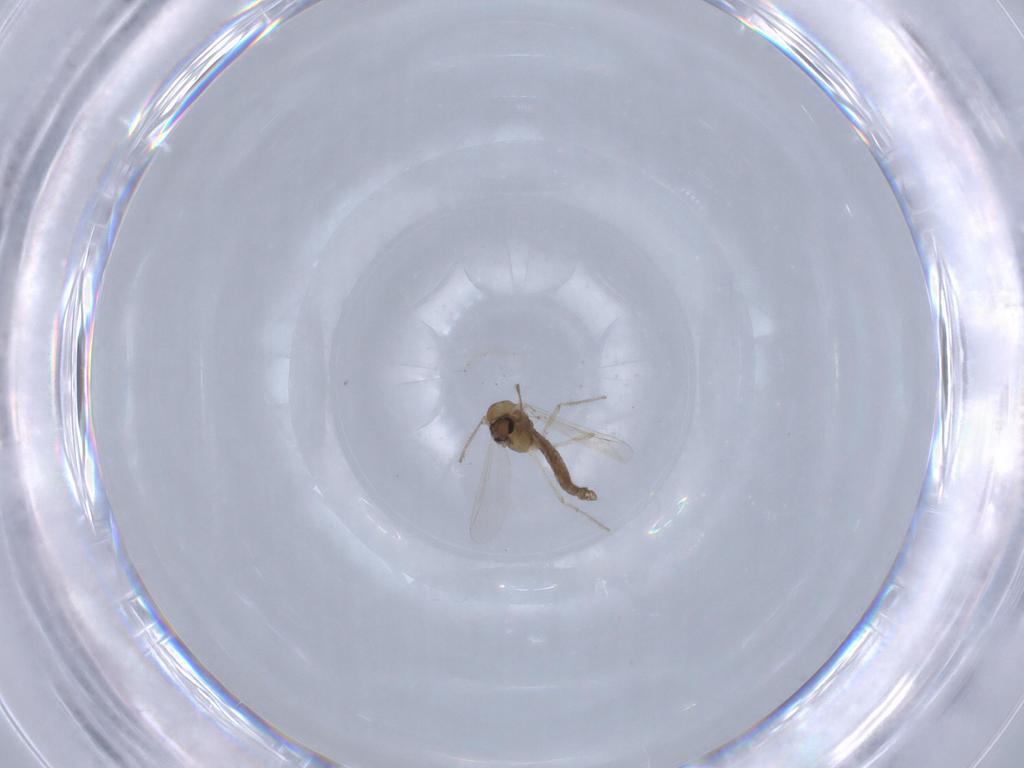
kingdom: Animalia
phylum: Arthropoda
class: Insecta
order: Diptera
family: Chironomidae
